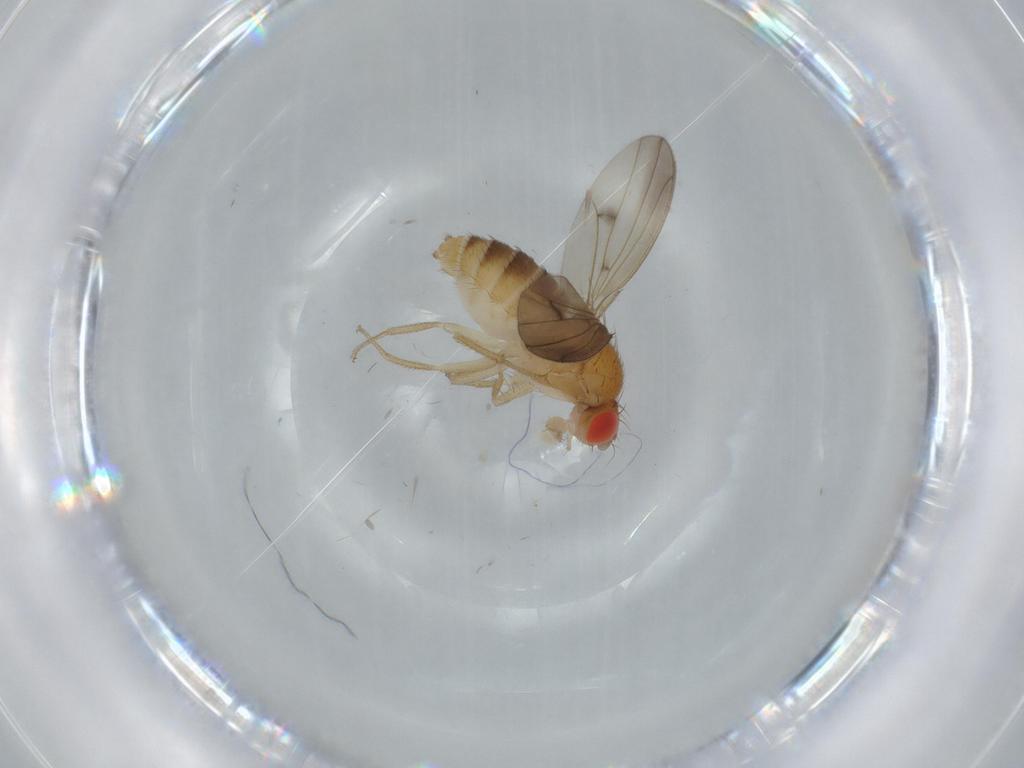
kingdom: Animalia
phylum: Arthropoda
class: Insecta
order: Diptera
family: Drosophilidae
